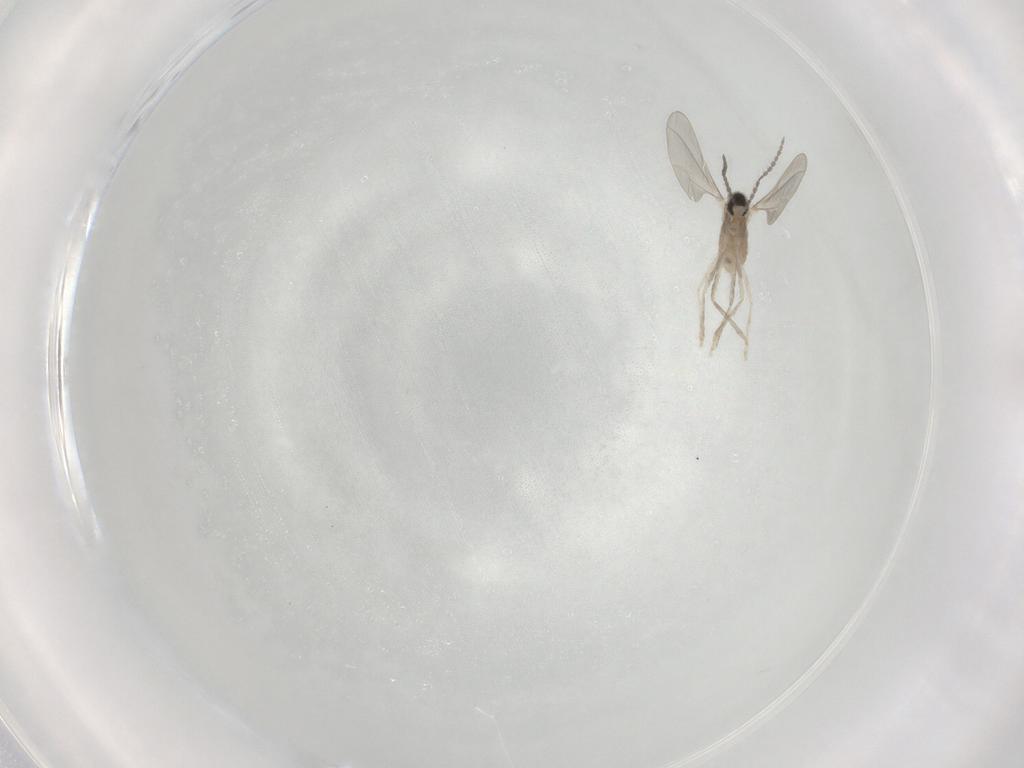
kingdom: Animalia
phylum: Arthropoda
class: Insecta
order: Diptera
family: Cecidomyiidae
